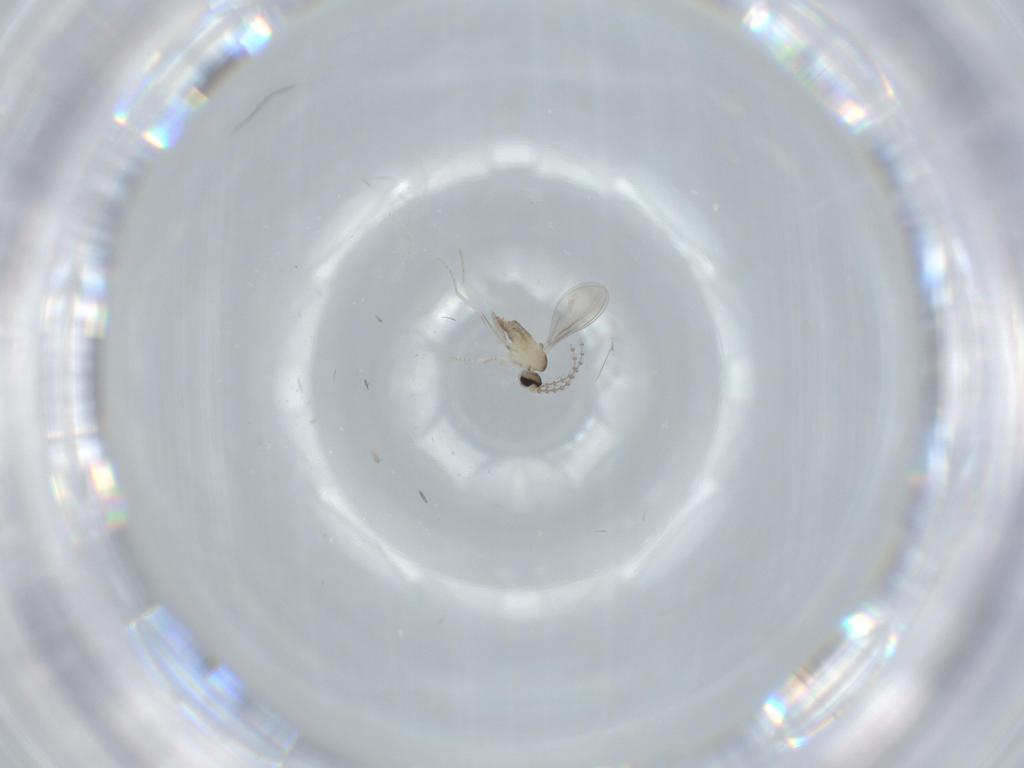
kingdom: Animalia
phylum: Arthropoda
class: Insecta
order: Diptera
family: Cecidomyiidae
